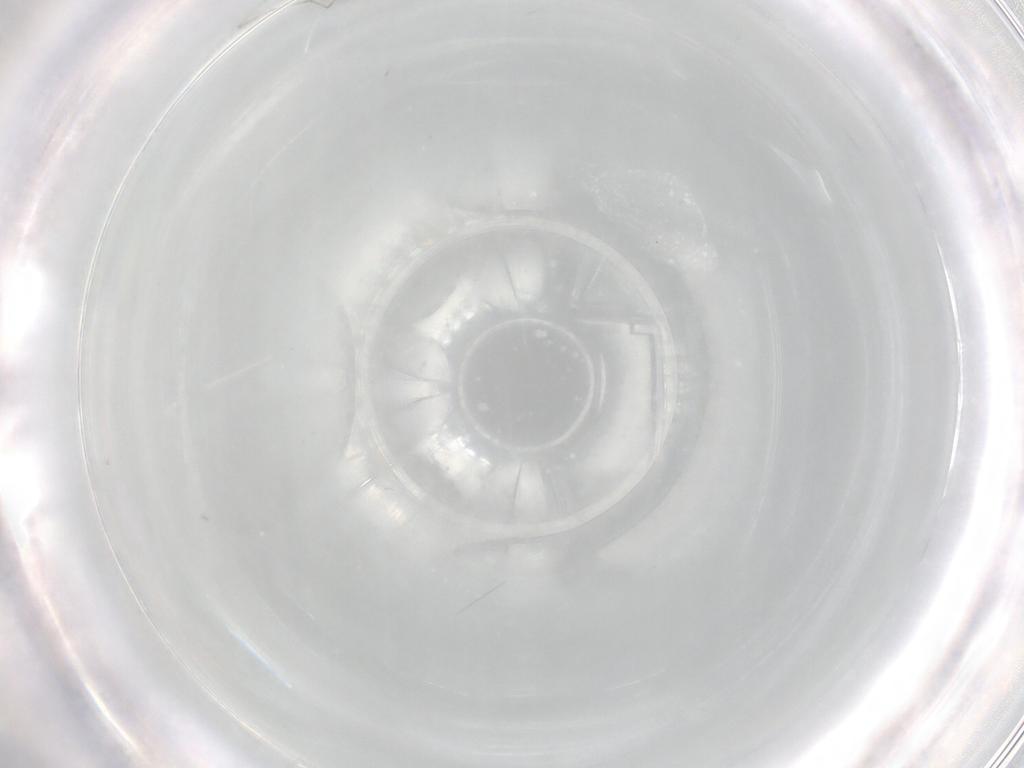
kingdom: Animalia
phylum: Arthropoda
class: Insecta
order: Diptera
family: Cecidomyiidae
